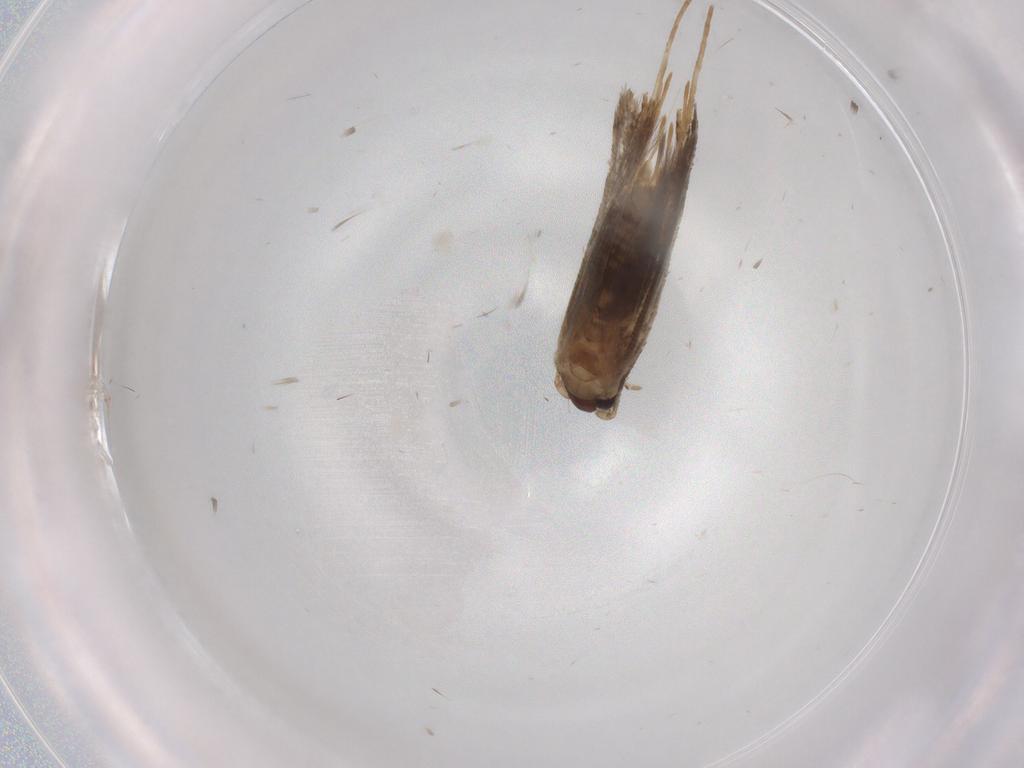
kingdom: Animalia
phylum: Arthropoda
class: Insecta
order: Lepidoptera
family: Tineidae
